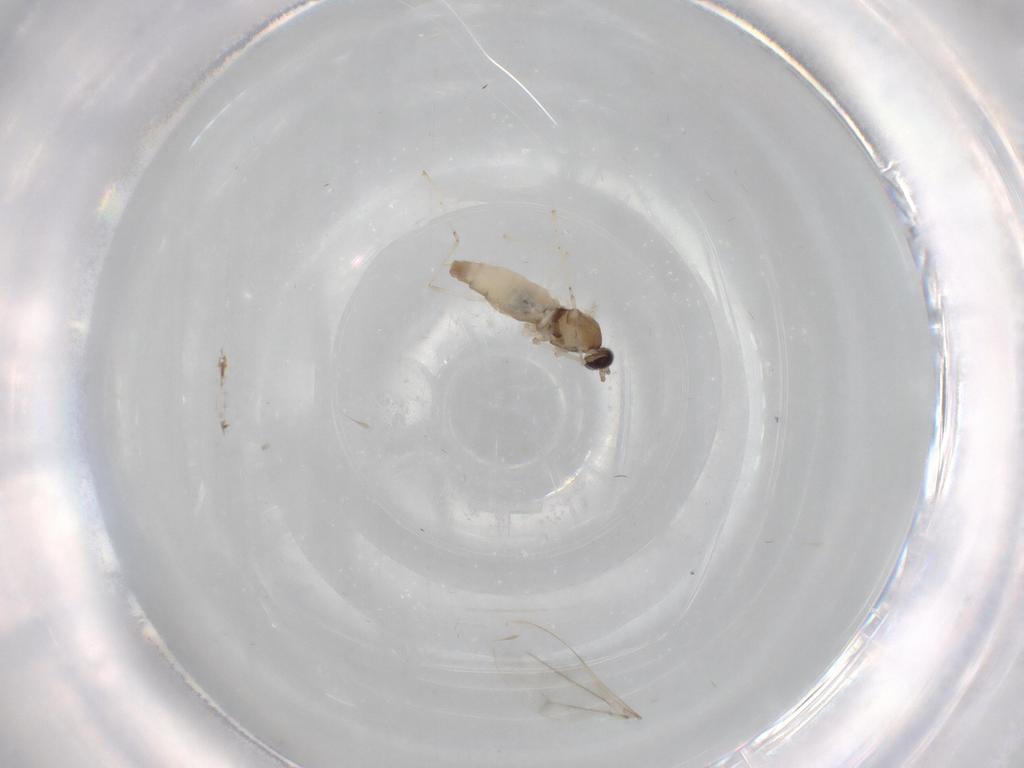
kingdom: Animalia
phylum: Arthropoda
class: Insecta
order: Diptera
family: Cecidomyiidae
